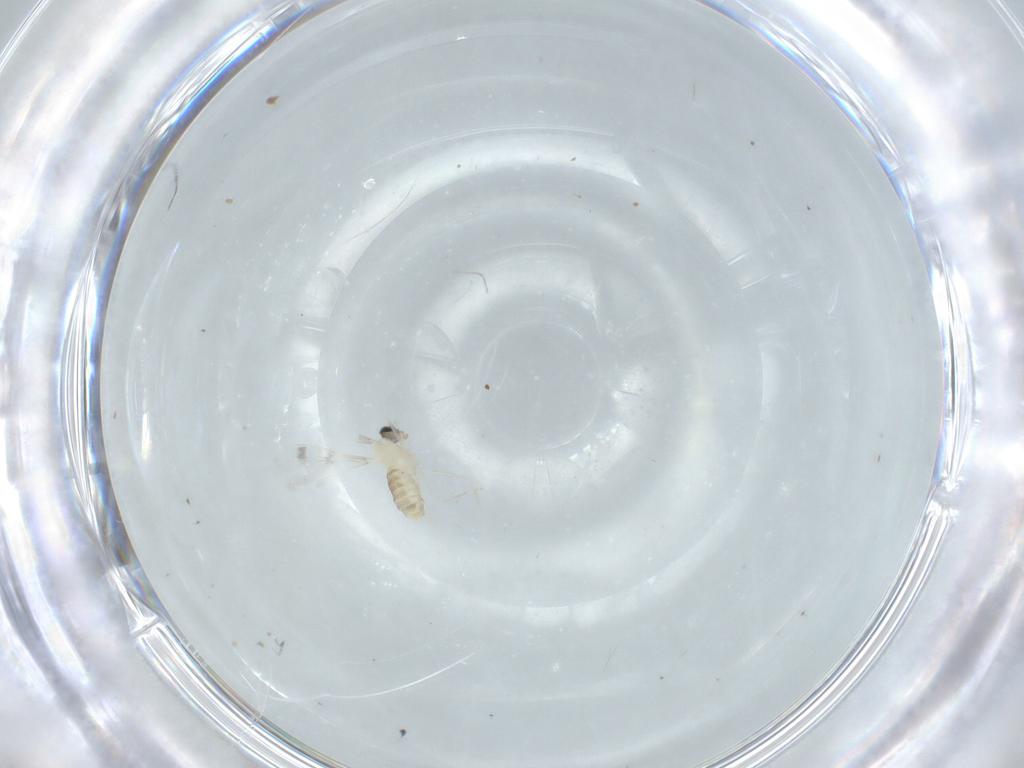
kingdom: Animalia
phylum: Arthropoda
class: Insecta
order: Diptera
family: Cecidomyiidae
